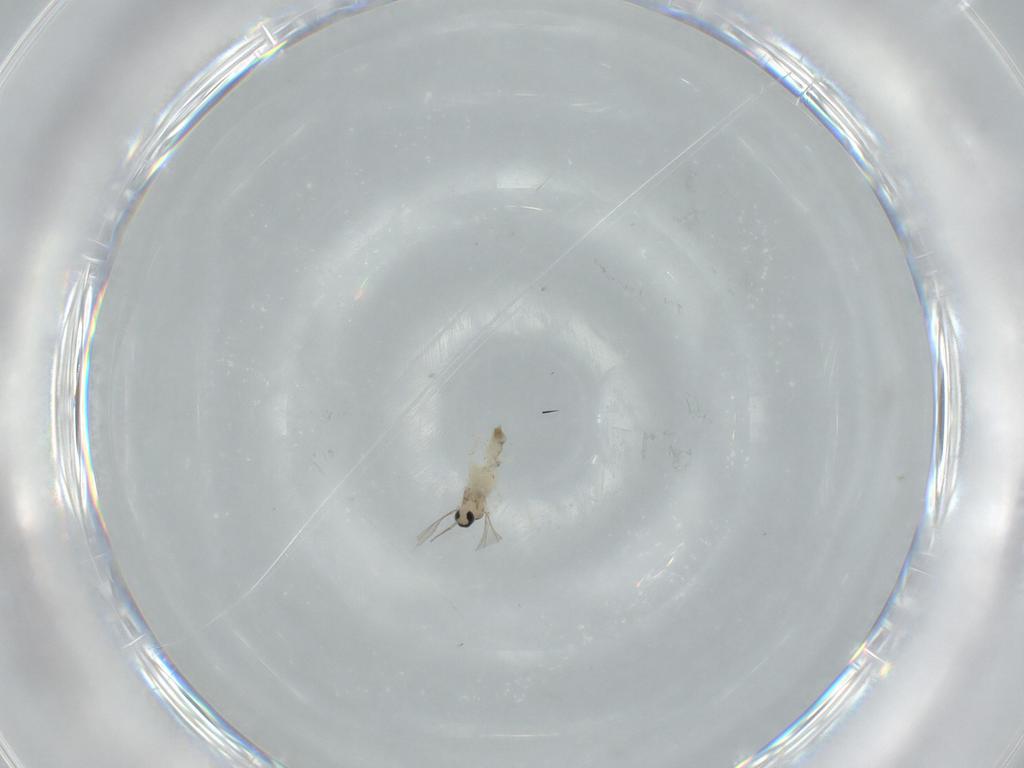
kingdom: Animalia
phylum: Arthropoda
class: Insecta
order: Diptera
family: Cecidomyiidae
